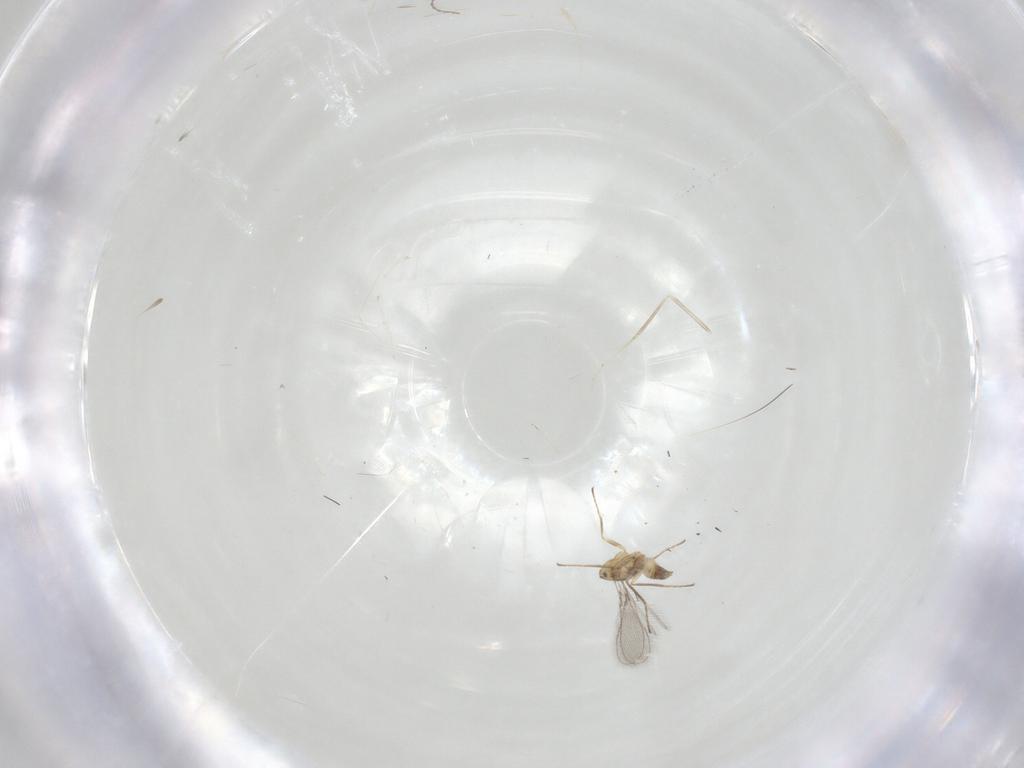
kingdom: Animalia
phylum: Arthropoda
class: Insecta
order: Hymenoptera
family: Mymaridae
